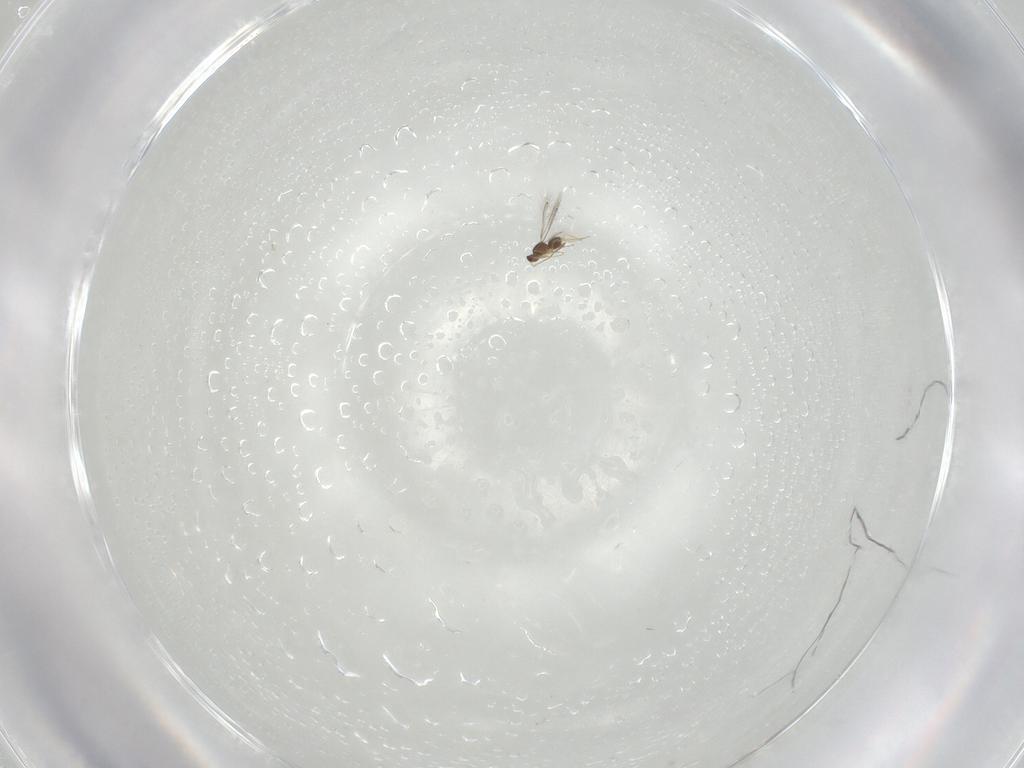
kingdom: Animalia
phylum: Arthropoda
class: Insecta
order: Hymenoptera
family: Mymaridae
